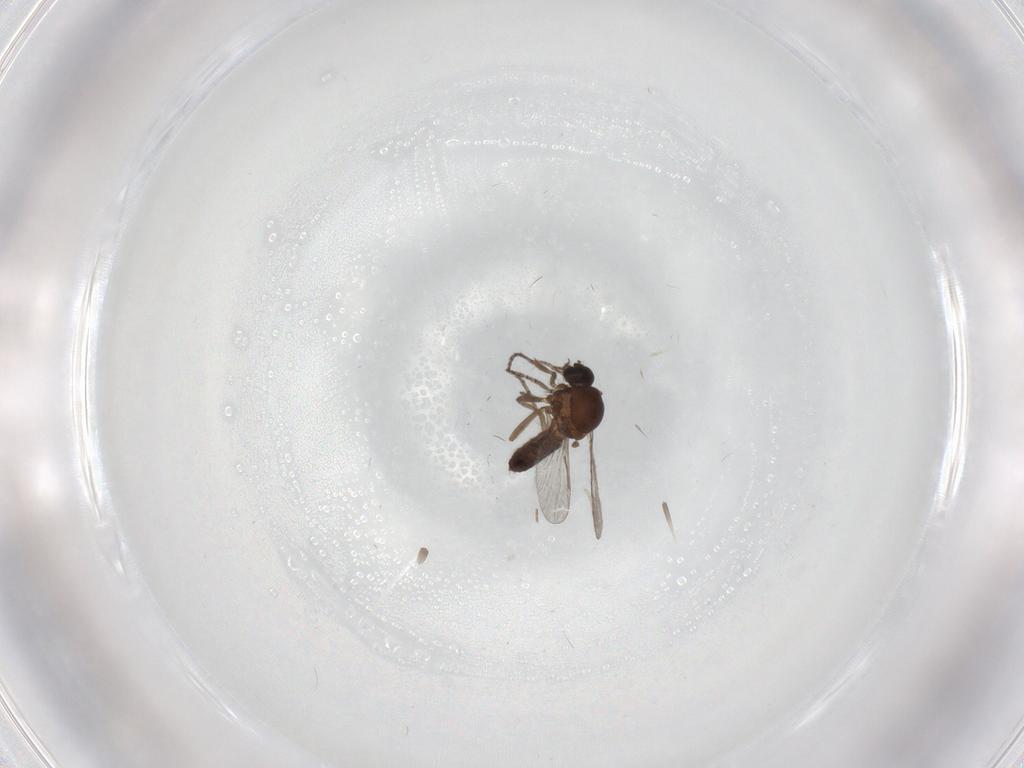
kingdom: Animalia
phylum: Arthropoda
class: Insecta
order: Diptera
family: Cecidomyiidae
